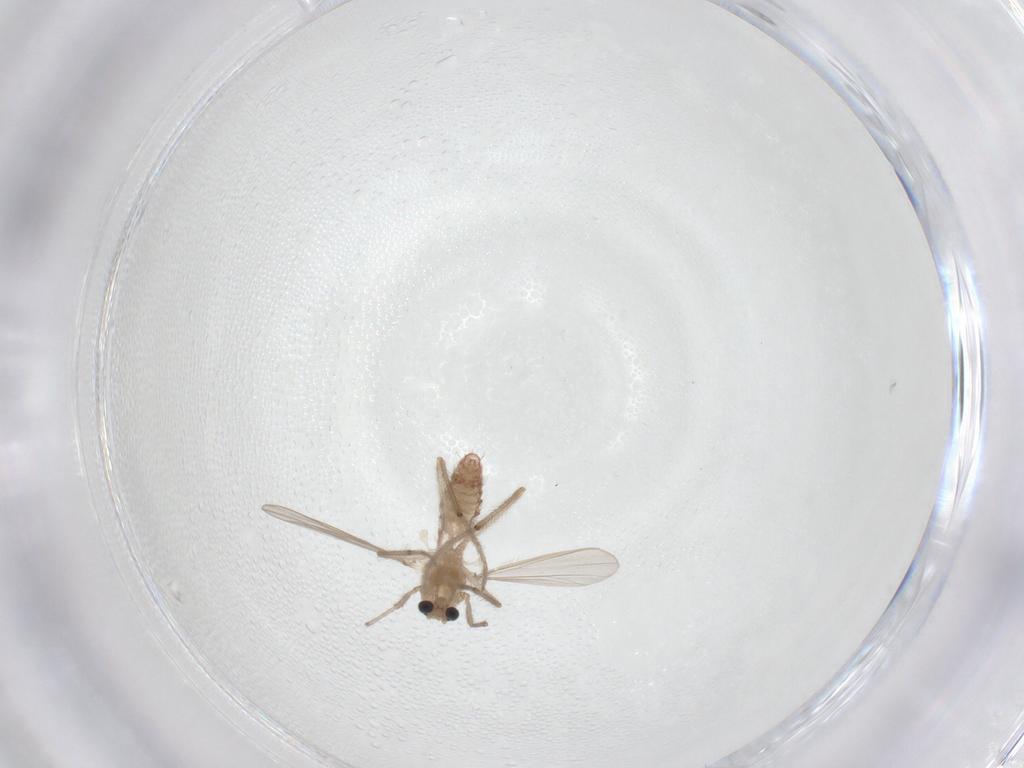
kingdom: Animalia
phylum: Arthropoda
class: Insecta
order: Diptera
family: Chironomidae
